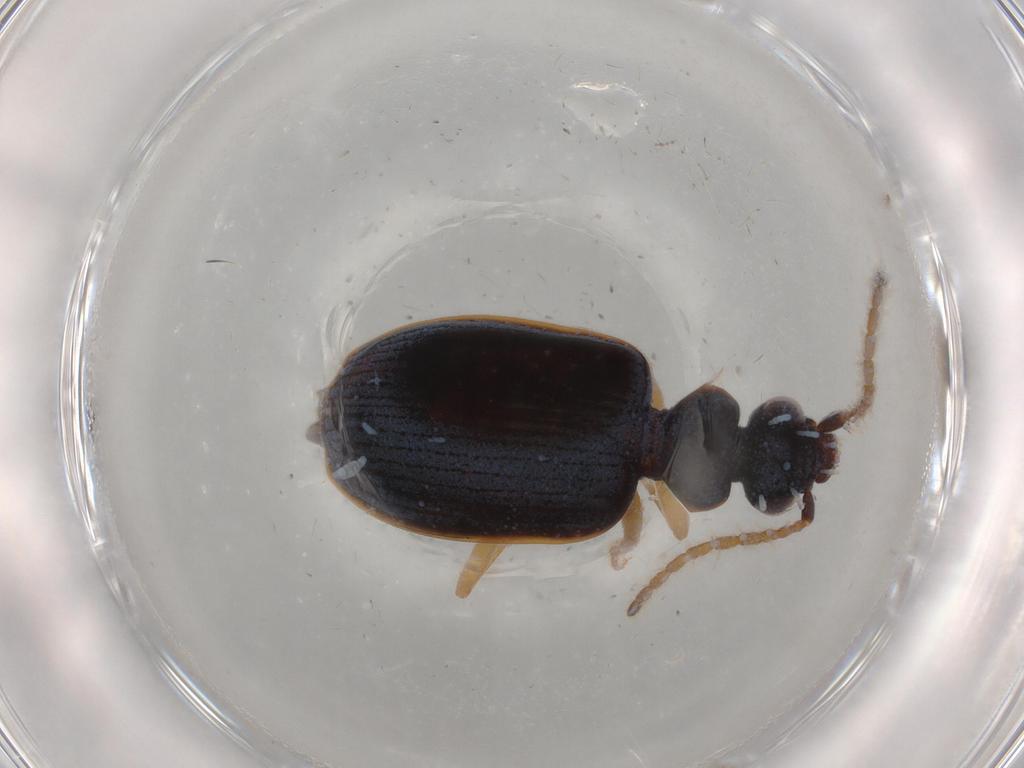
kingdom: Animalia
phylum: Arthropoda
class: Insecta
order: Coleoptera
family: Carabidae
